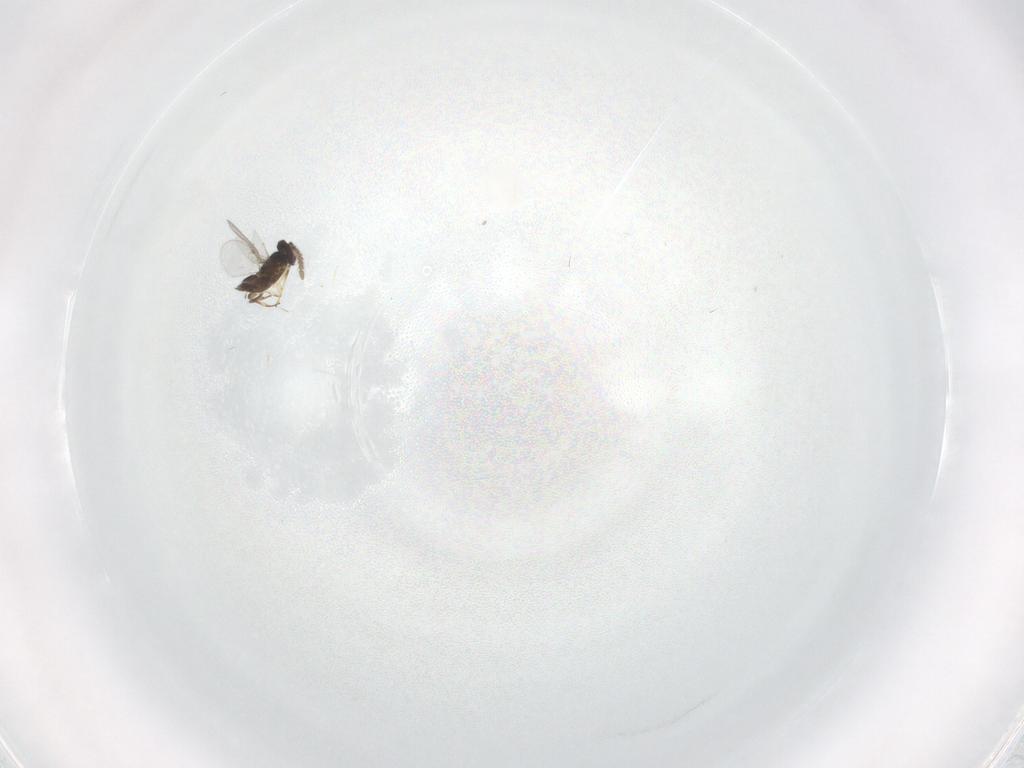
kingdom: Animalia
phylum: Arthropoda
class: Insecta
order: Hymenoptera
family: Encyrtidae
